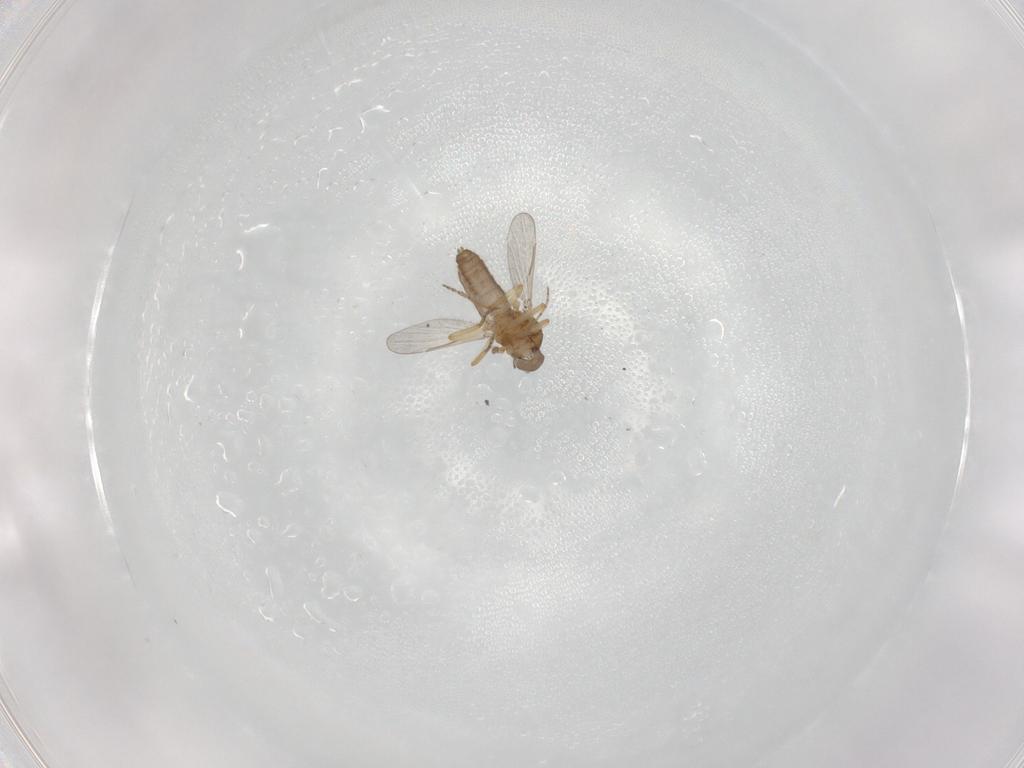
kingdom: Animalia
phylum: Arthropoda
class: Insecta
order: Diptera
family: Ceratopogonidae
